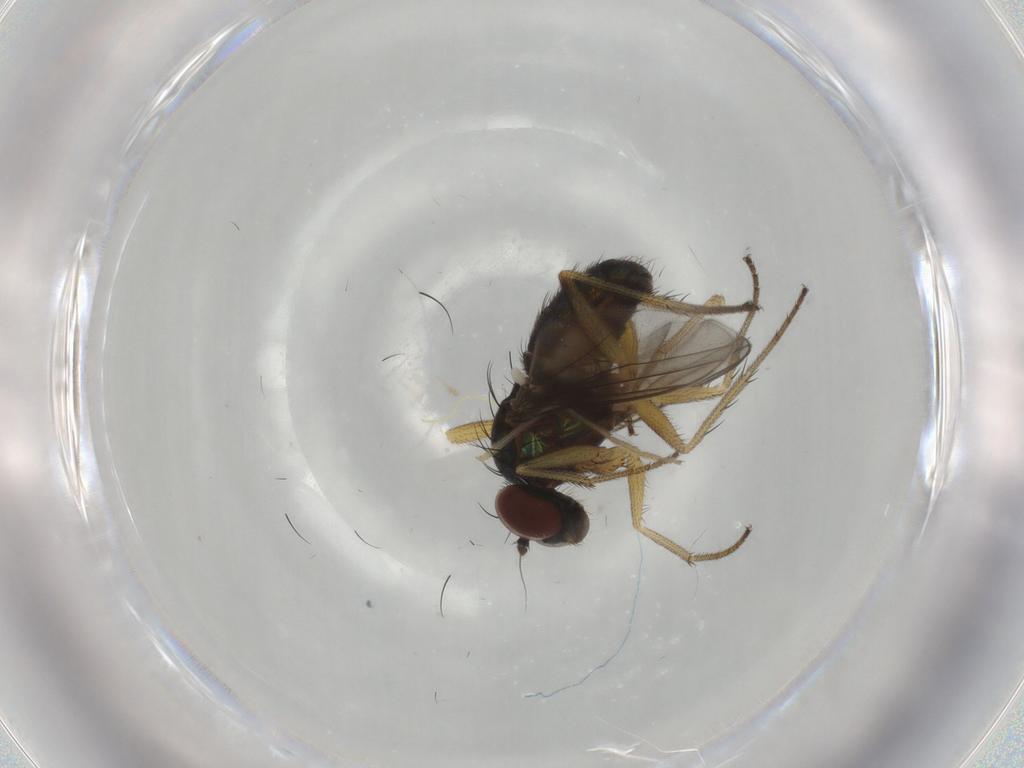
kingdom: Animalia
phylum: Arthropoda
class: Insecta
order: Diptera
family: Dolichopodidae
